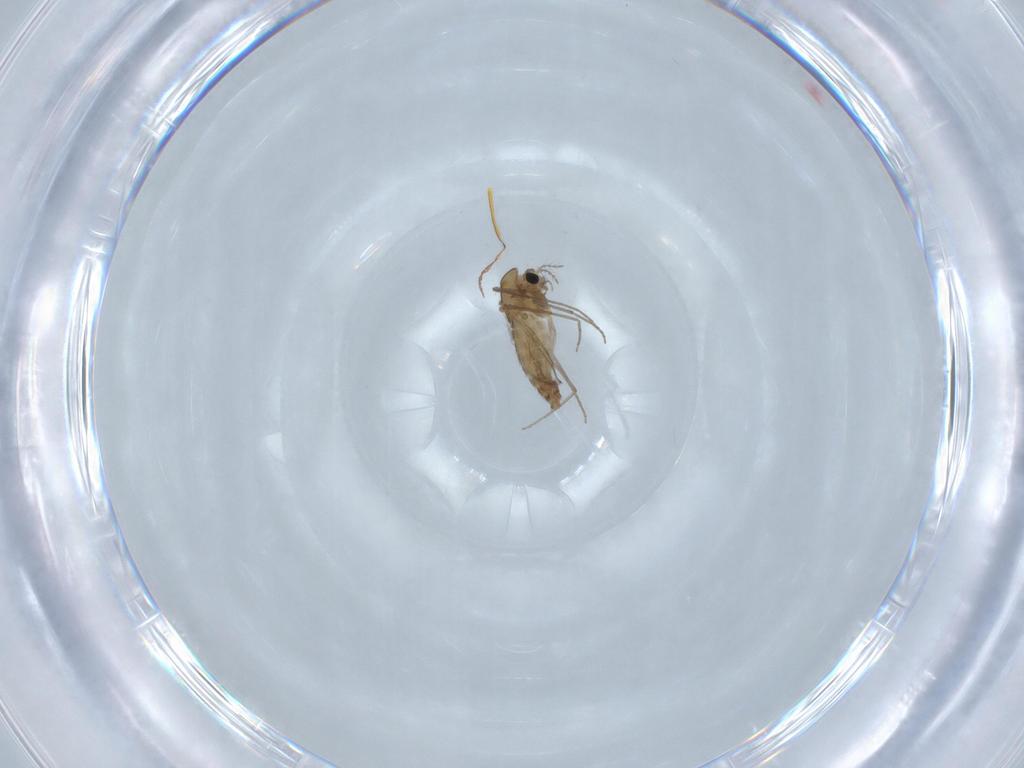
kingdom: Animalia
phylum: Arthropoda
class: Insecta
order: Diptera
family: Chironomidae
